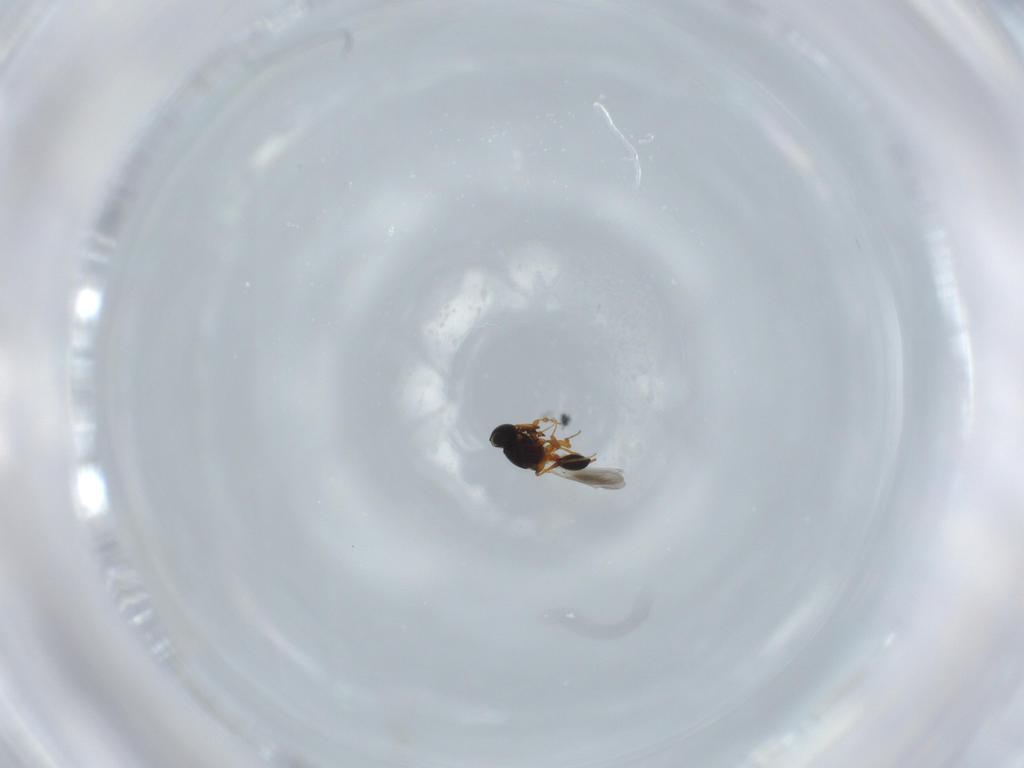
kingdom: Animalia
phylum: Arthropoda
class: Insecta
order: Hymenoptera
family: Platygastridae
